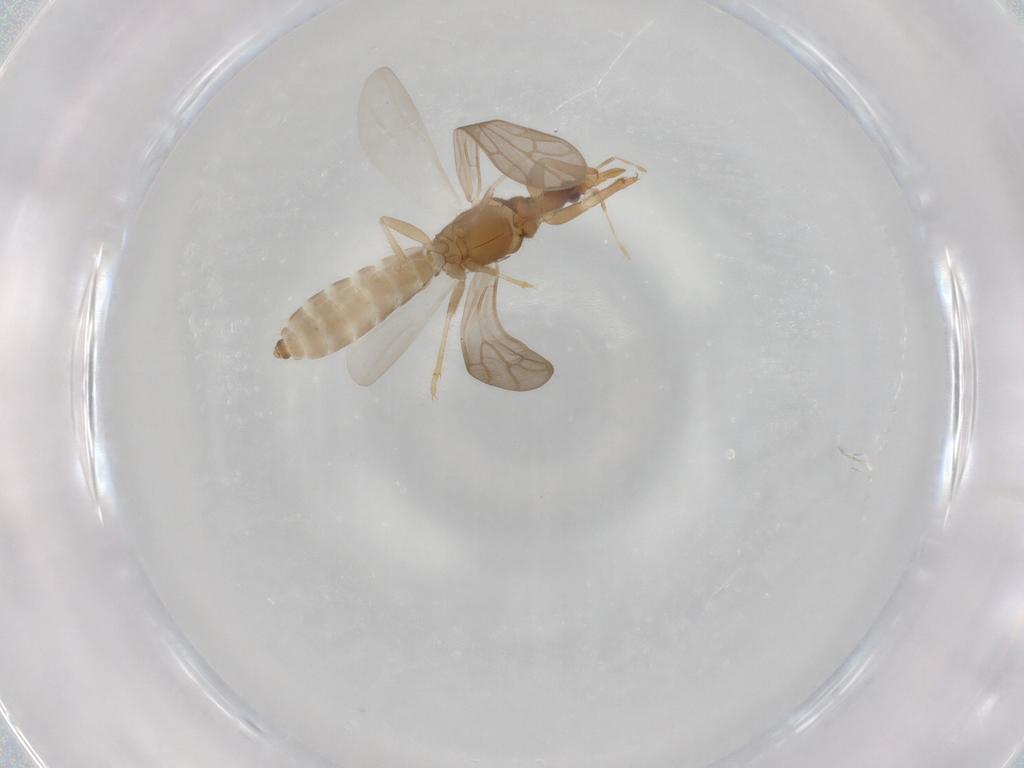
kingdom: Animalia
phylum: Arthropoda
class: Insecta
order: Hemiptera
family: Enicocephalidae
